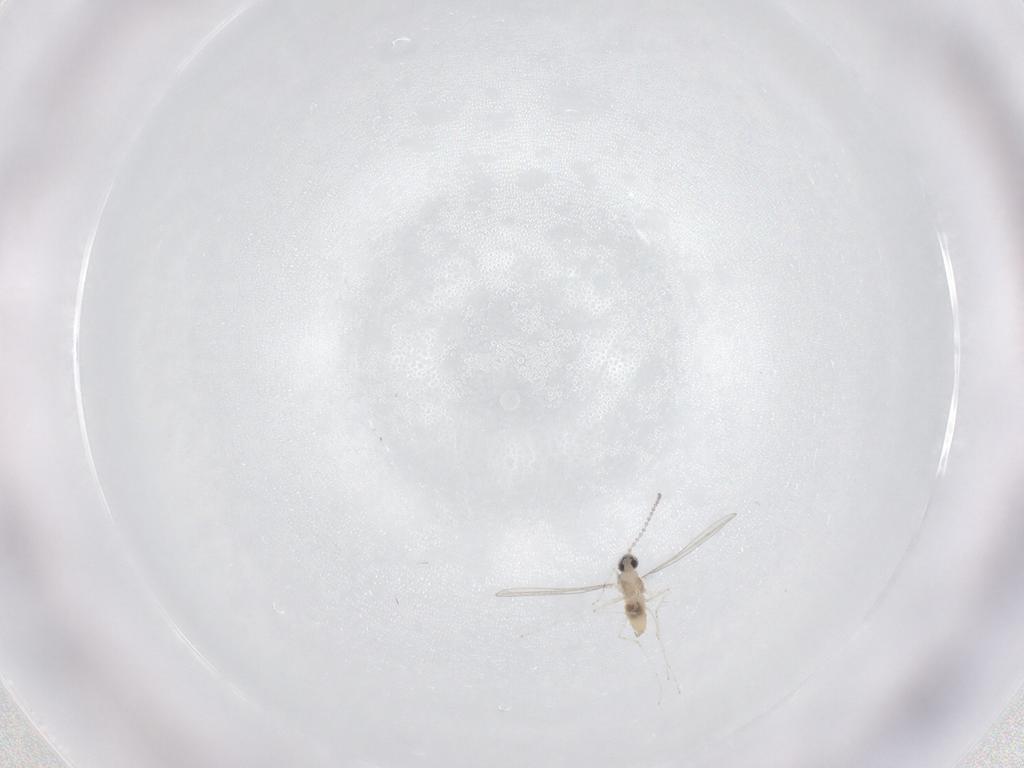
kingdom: Animalia
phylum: Arthropoda
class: Insecta
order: Diptera
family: Cecidomyiidae
